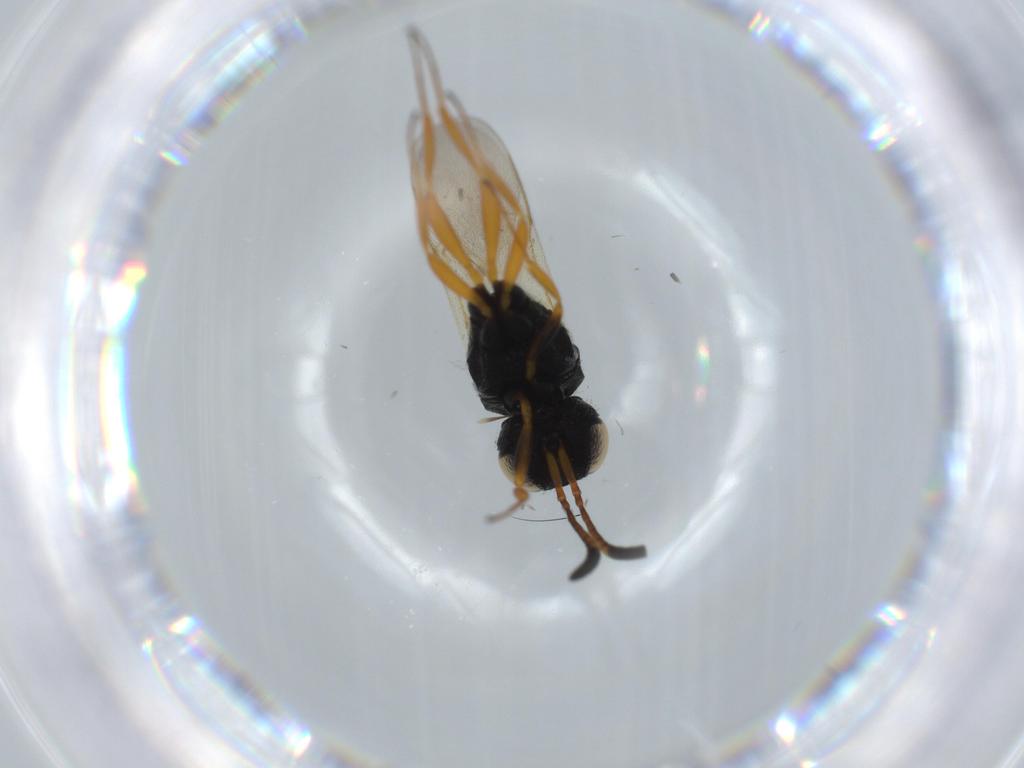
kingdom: Animalia
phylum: Arthropoda
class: Insecta
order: Hymenoptera
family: Scelionidae
